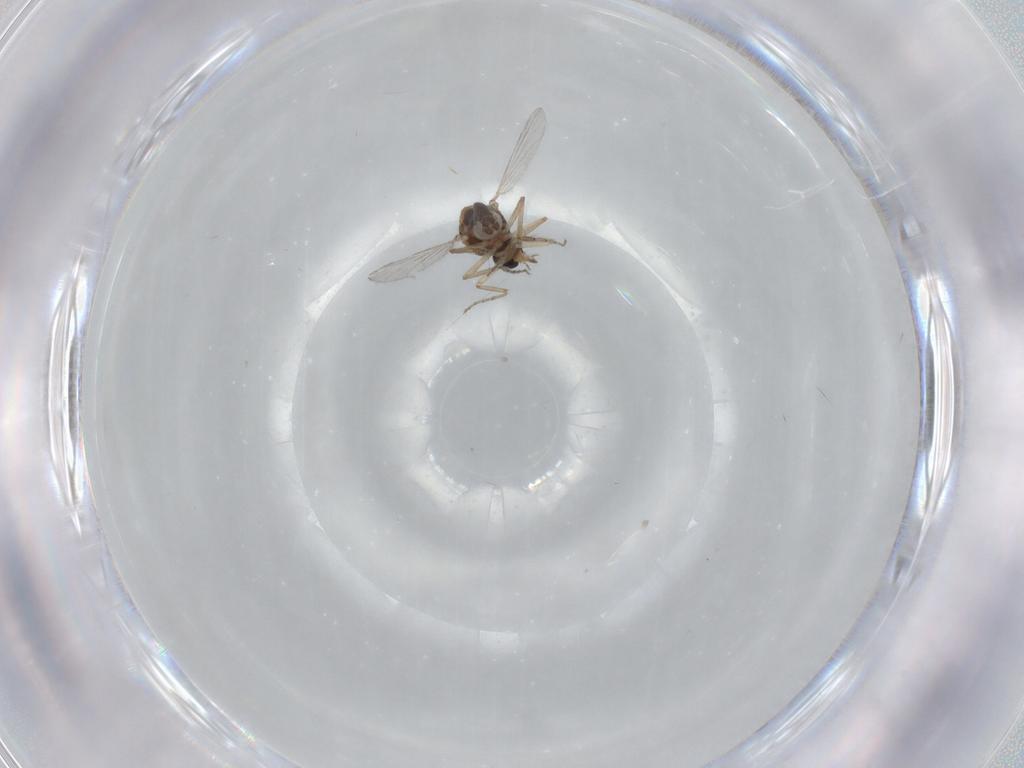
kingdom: Animalia
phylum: Arthropoda
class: Insecta
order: Diptera
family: Ceratopogonidae
